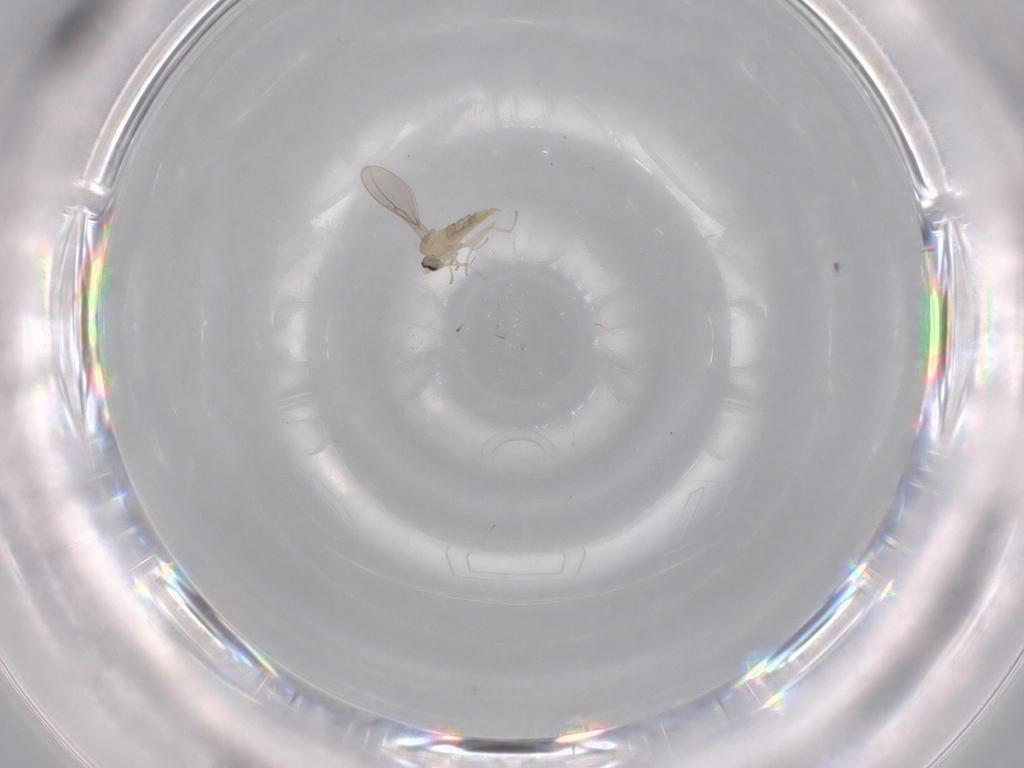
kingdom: Animalia
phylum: Arthropoda
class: Insecta
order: Diptera
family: Cecidomyiidae
